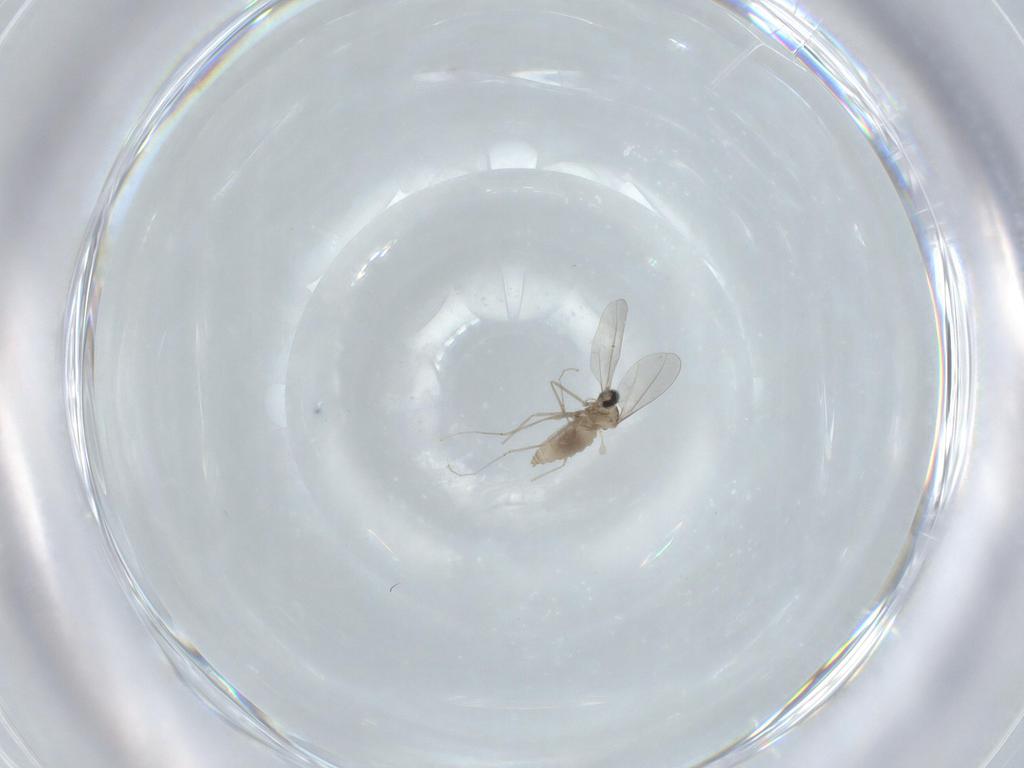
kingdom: Animalia
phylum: Arthropoda
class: Insecta
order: Diptera
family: Cecidomyiidae
